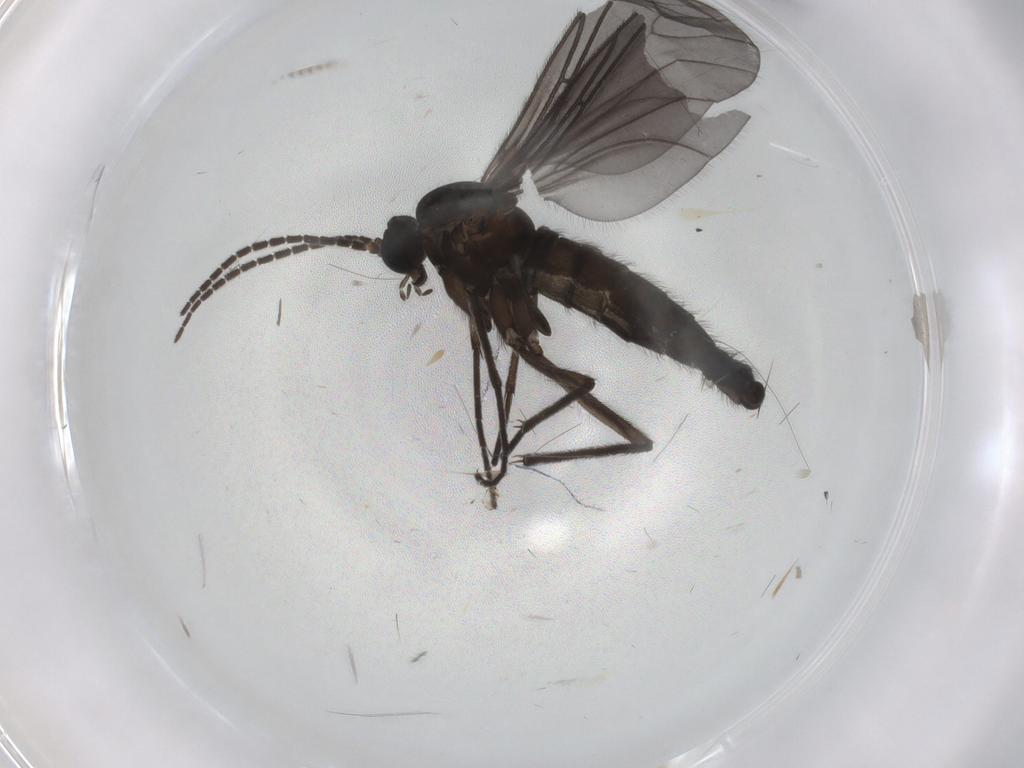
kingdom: Animalia
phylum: Arthropoda
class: Insecta
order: Diptera
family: Sciaridae
